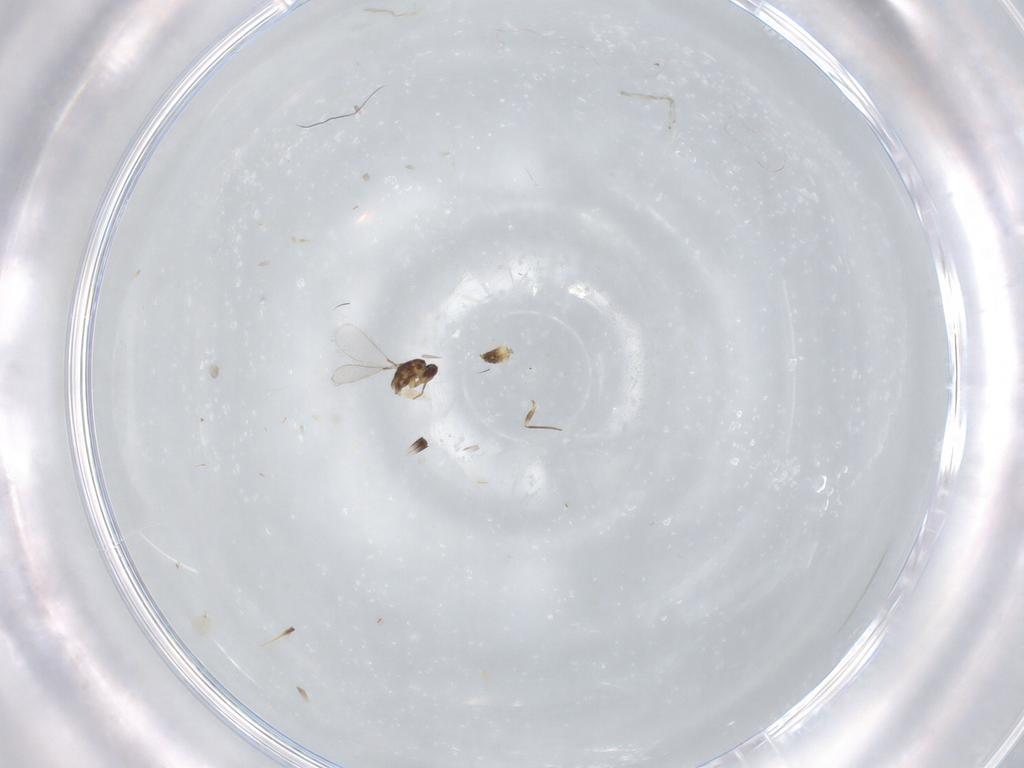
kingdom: Animalia
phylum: Arthropoda
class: Insecta
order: Hymenoptera
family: Mymaridae
